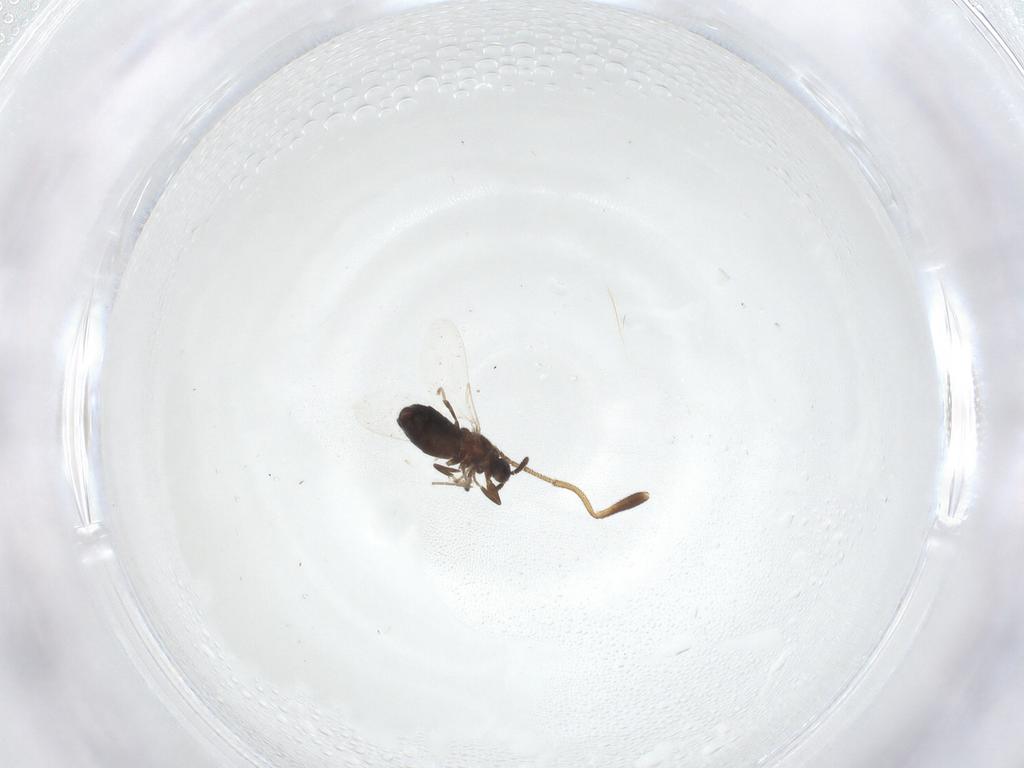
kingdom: Animalia
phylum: Arthropoda
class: Insecta
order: Diptera
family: Scatopsidae
